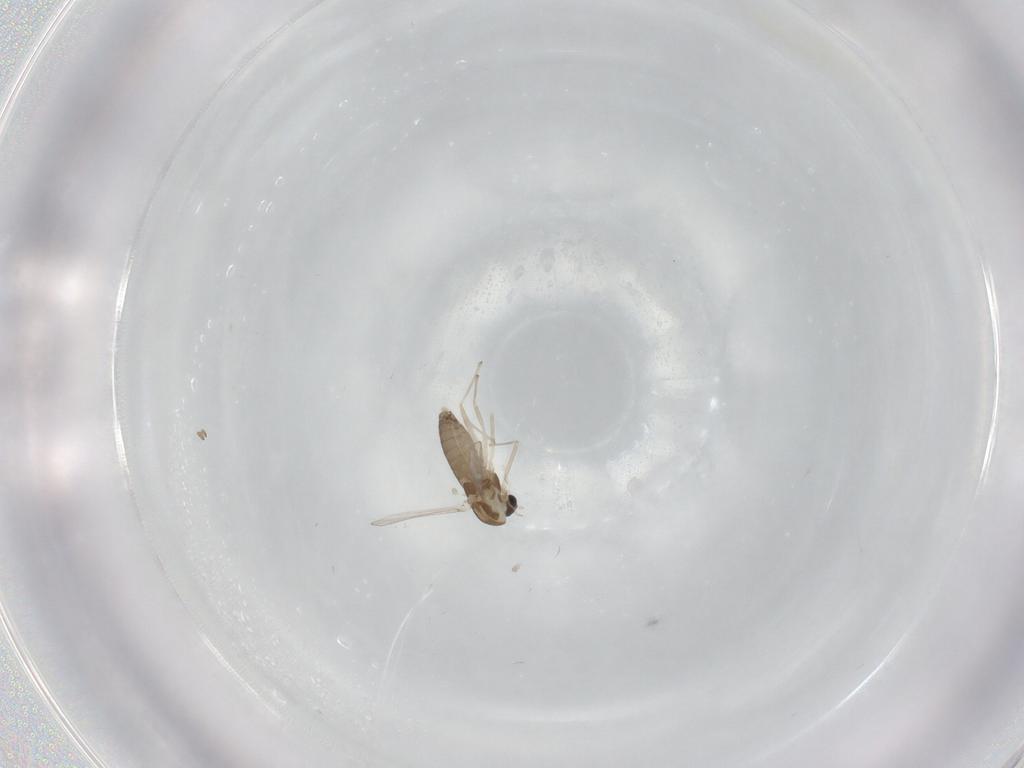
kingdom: Animalia
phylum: Arthropoda
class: Insecta
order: Diptera
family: Chironomidae
